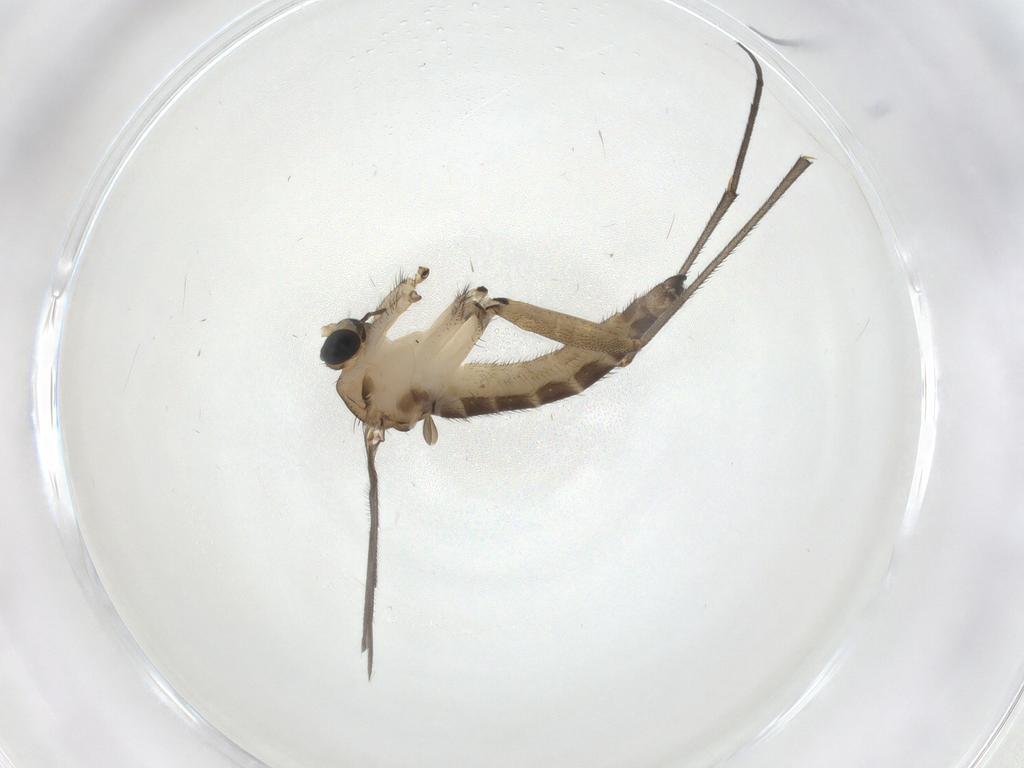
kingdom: Animalia
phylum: Arthropoda
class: Insecta
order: Diptera
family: Sciaridae
